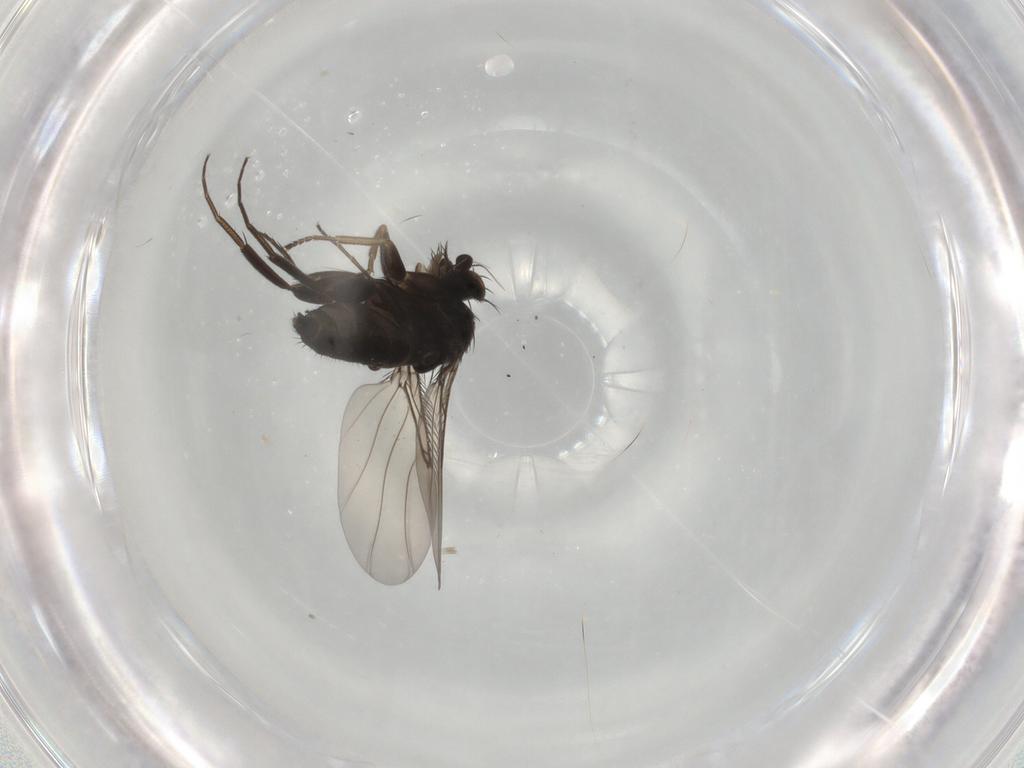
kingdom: Animalia
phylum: Arthropoda
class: Insecta
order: Diptera
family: Phoridae
